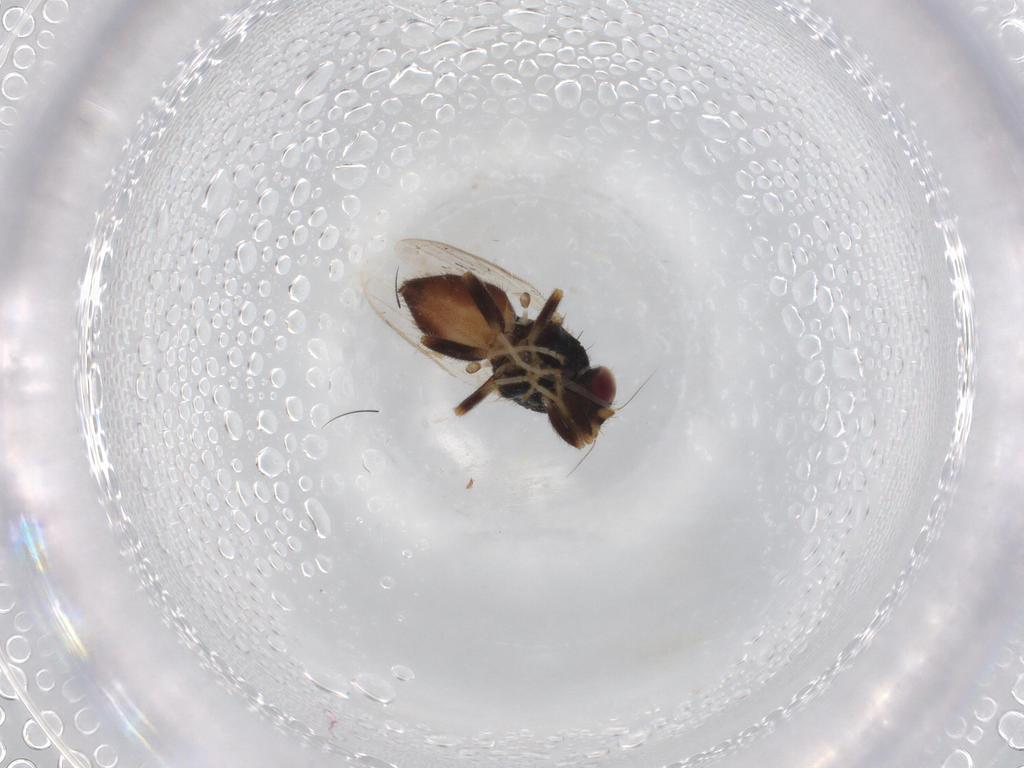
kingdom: Animalia
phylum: Arthropoda
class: Insecta
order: Diptera
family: Chloropidae
